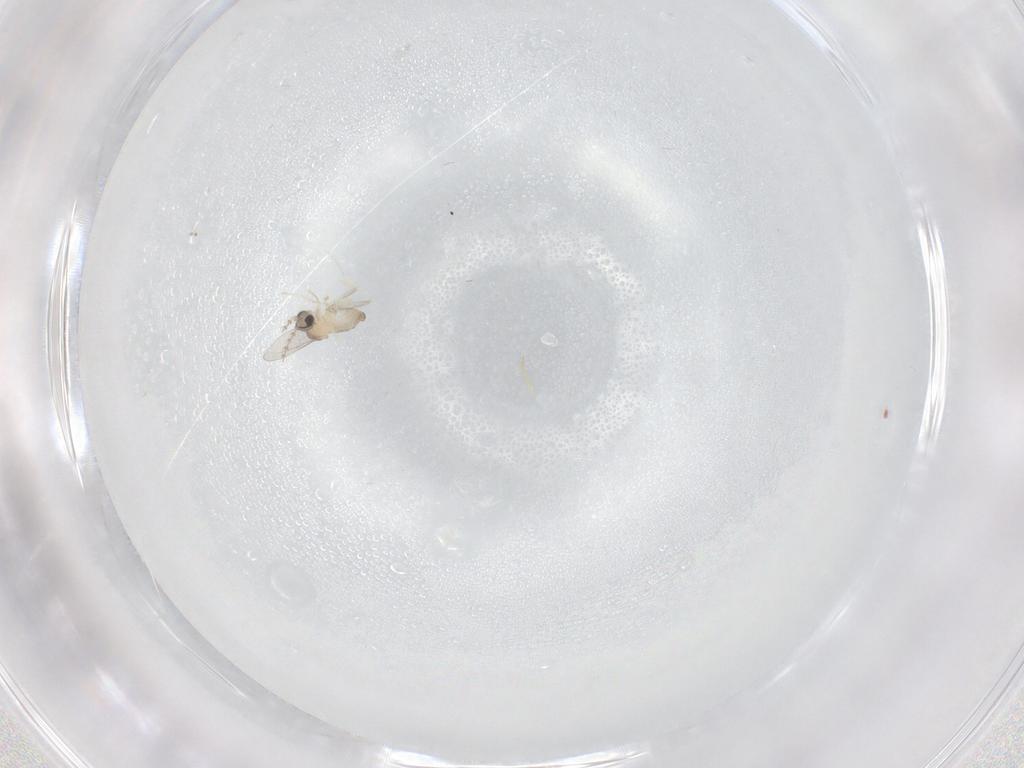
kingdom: Animalia
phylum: Arthropoda
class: Insecta
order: Diptera
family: Cecidomyiidae
